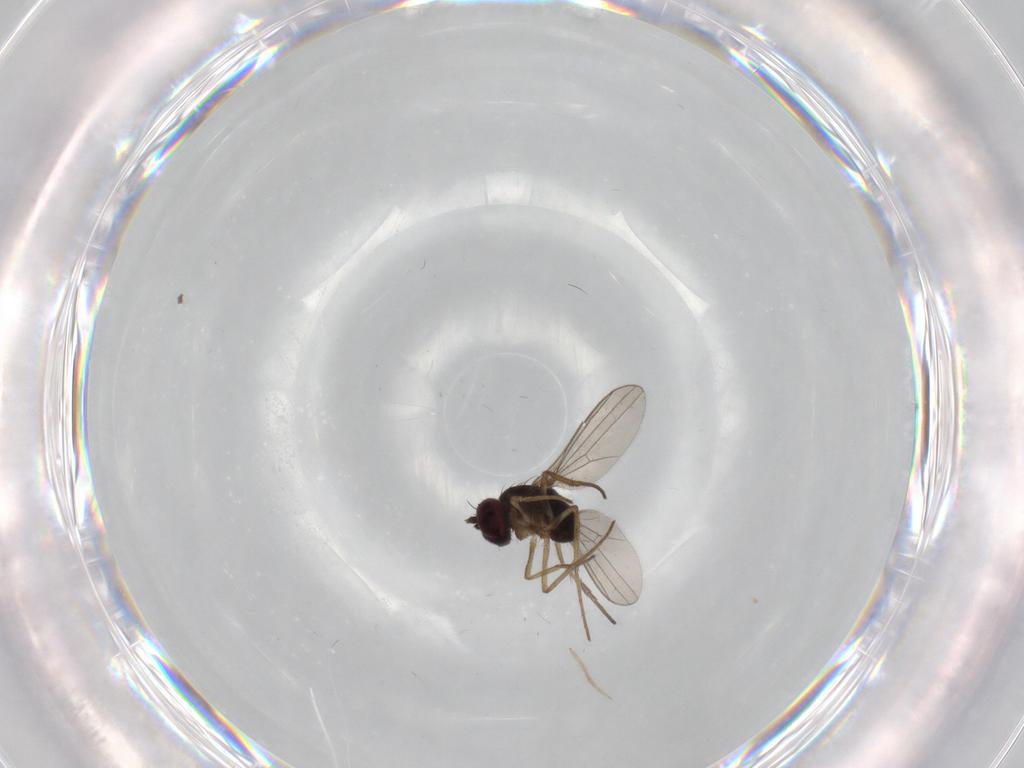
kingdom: Animalia
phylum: Arthropoda
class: Insecta
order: Diptera
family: Dolichopodidae
